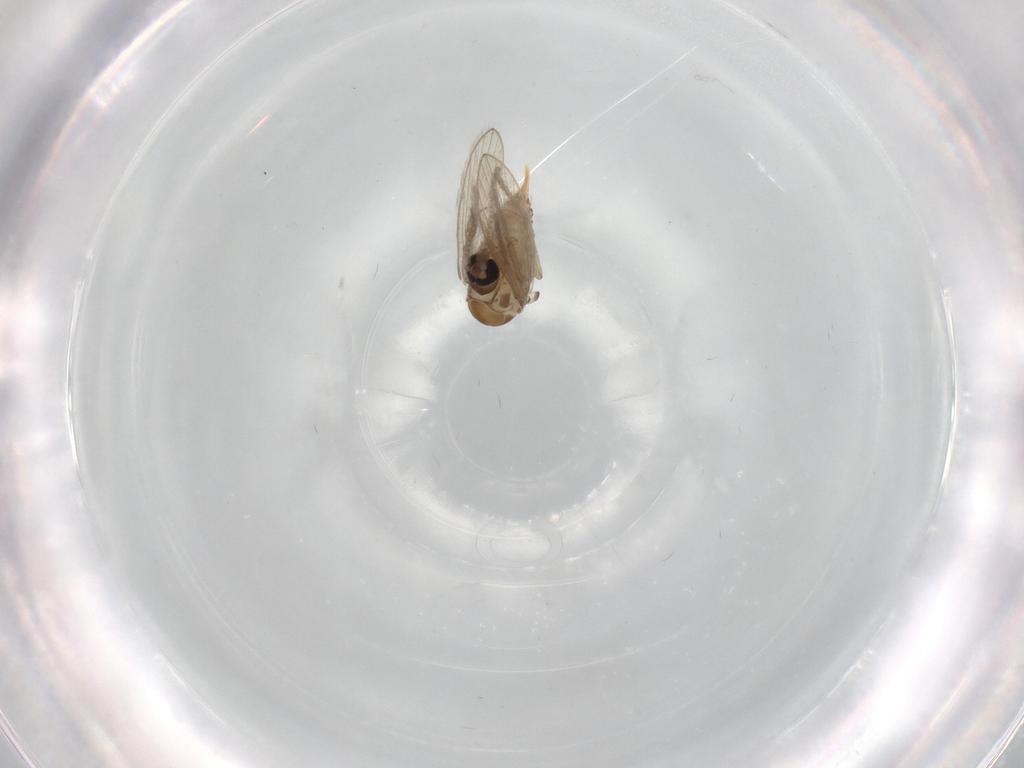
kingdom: Animalia
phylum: Arthropoda
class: Insecta
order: Diptera
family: Psychodidae
